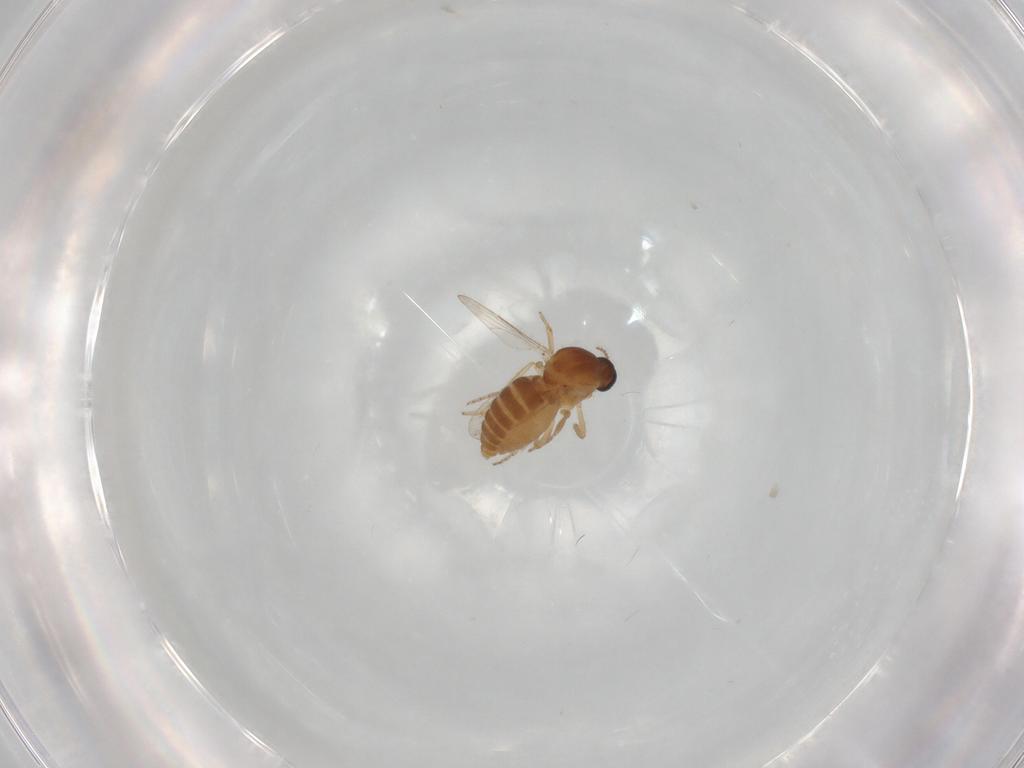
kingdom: Animalia
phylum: Arthropoda
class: Insecta
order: Diptera
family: Ceratopogonidae
